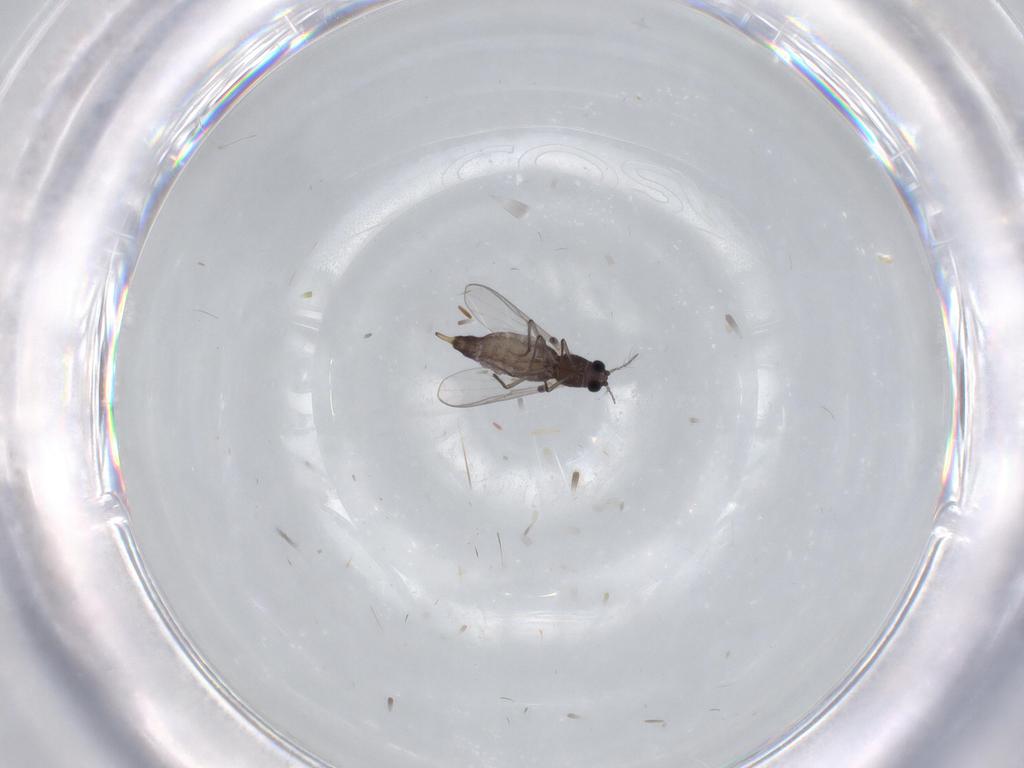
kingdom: Animalia
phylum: Arthropoda
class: Insecta
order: Diptera
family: Chironomidae
